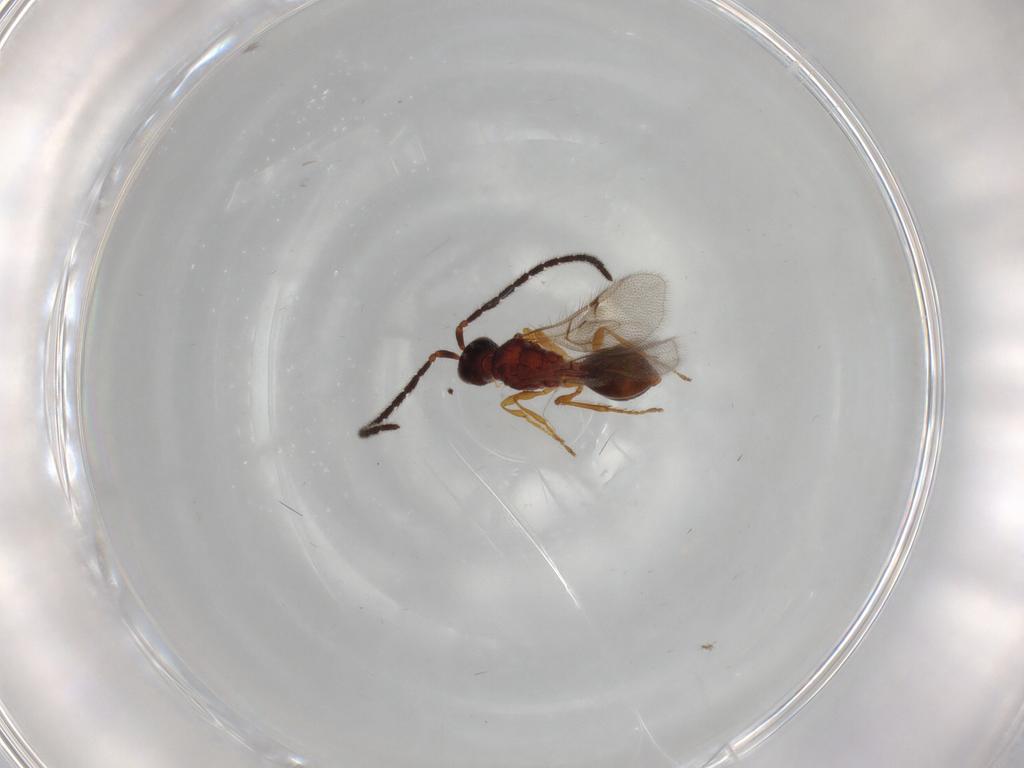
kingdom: Animalia
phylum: Arthropoda
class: Insecta
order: Hymenoptera
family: Diapriidae
